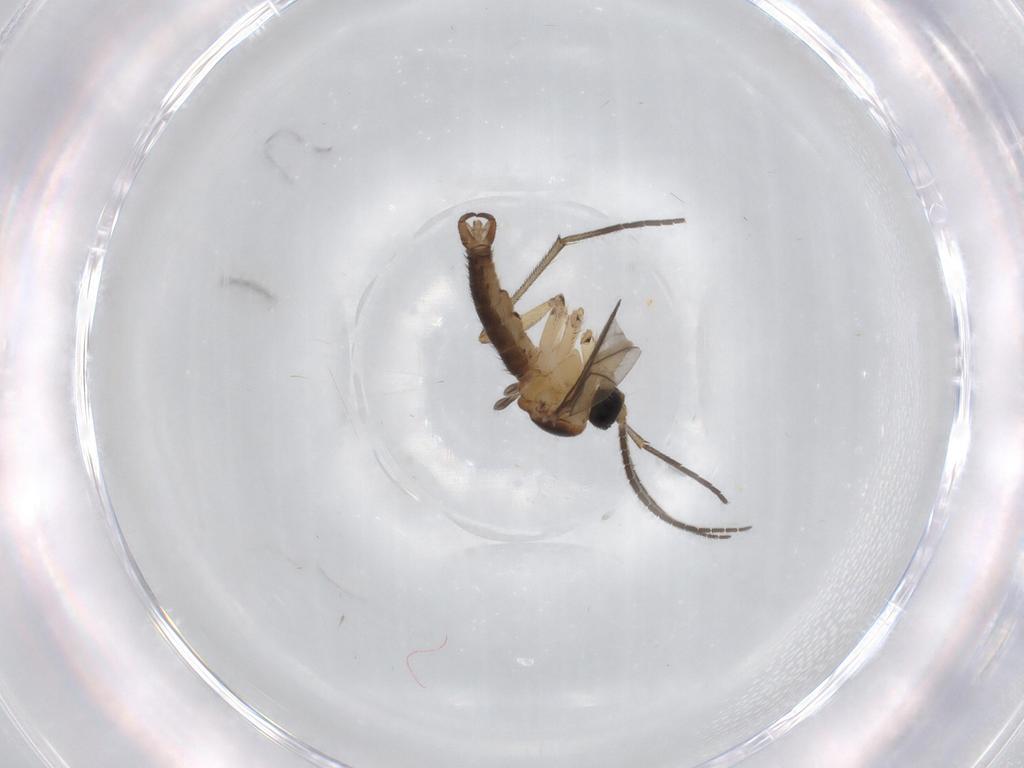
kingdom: Animalia
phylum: Arthropoda
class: Insecta
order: Diptera
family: Sciaridae
